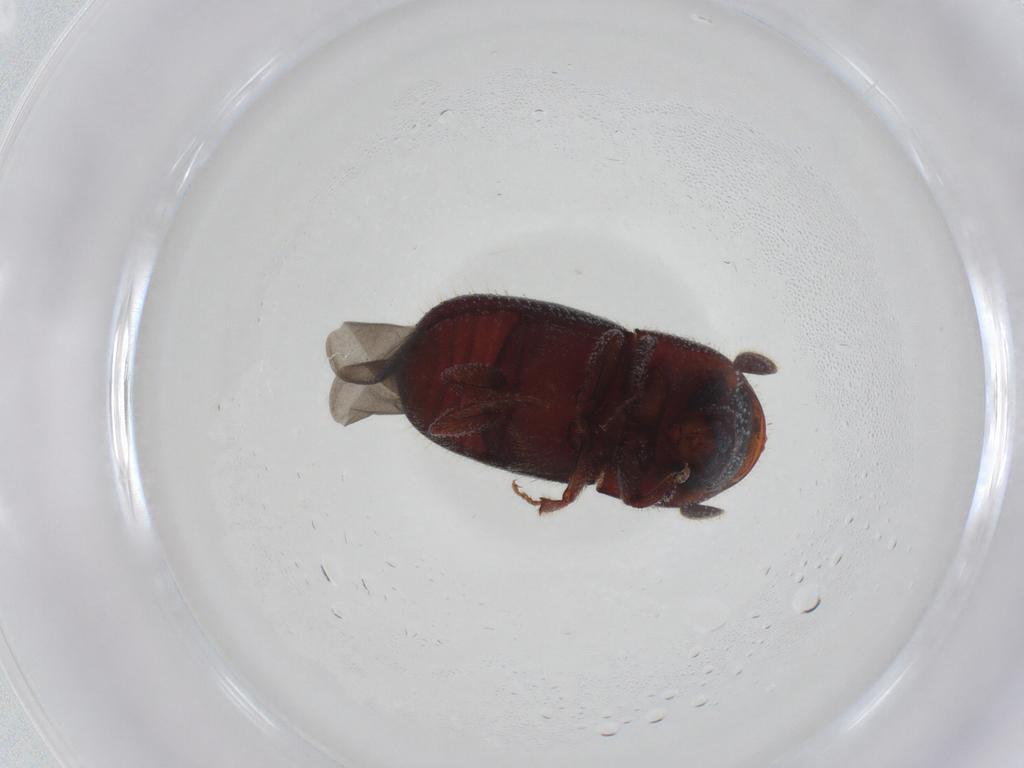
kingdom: Animalia
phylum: Arthropoda
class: Insecta
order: Coleoptera
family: Curculionidae
